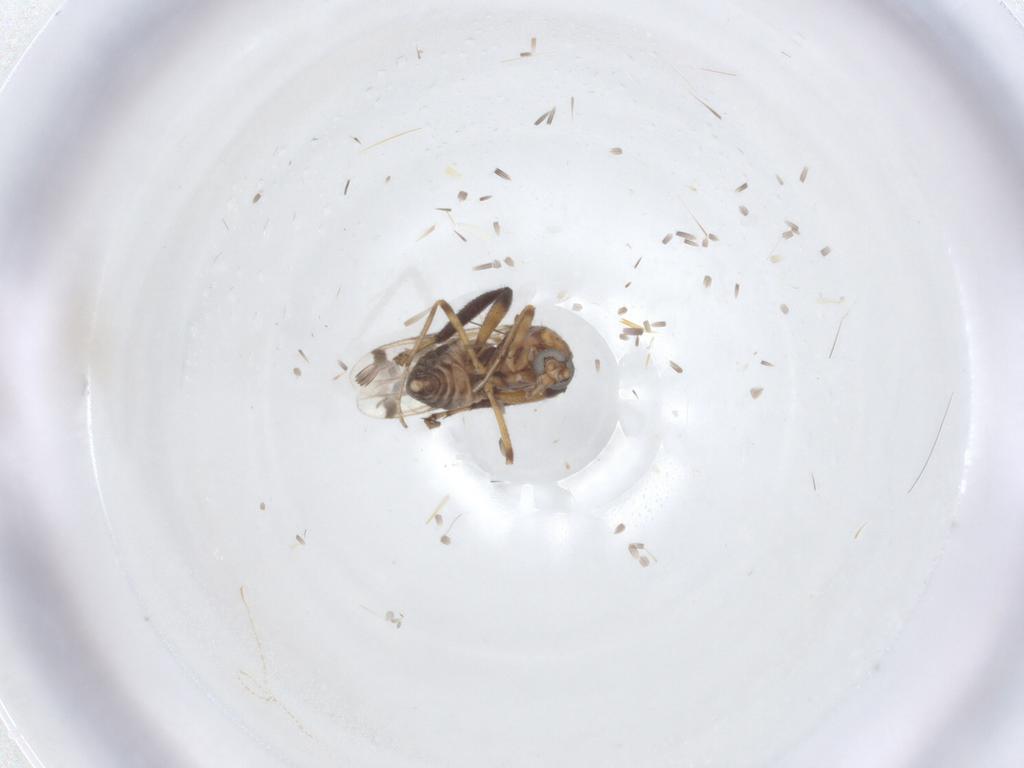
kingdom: Animalia
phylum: Arthropoda
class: Insecta
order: Diptera
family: Ceratopogonidae
